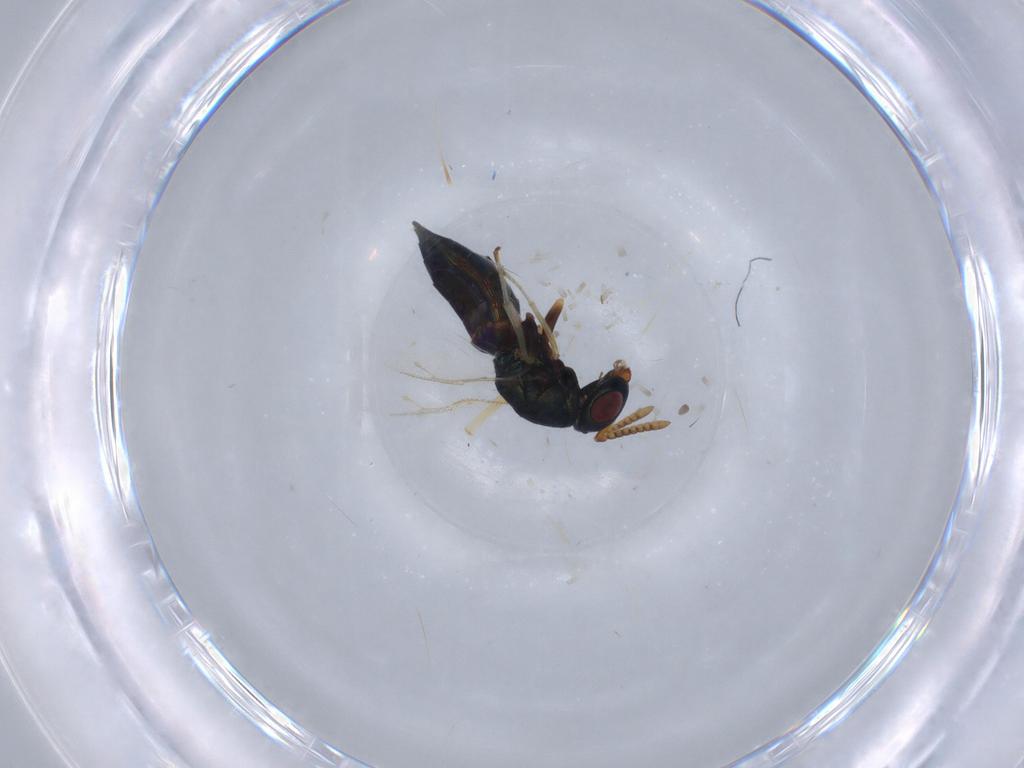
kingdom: Animalia
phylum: Arthropoda
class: Insecta
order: Hymenoptera
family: Pteromalidae
